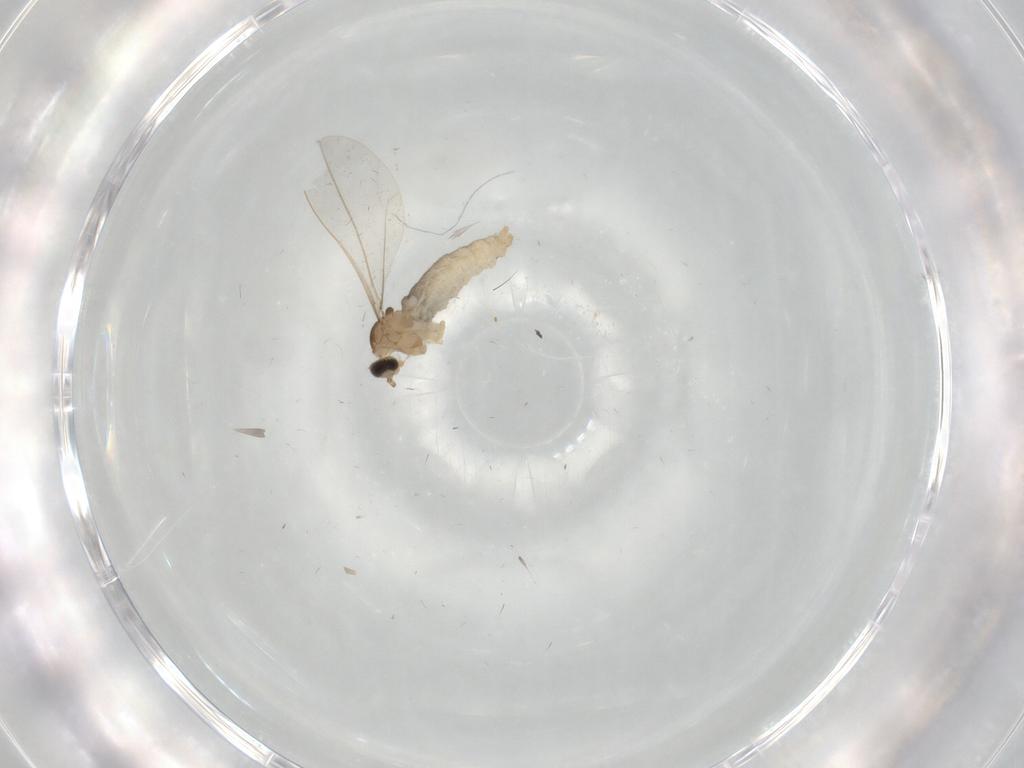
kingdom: Animalia
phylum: Arthropoda
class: Insecta
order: Diptera
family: Cecidomyiidae
